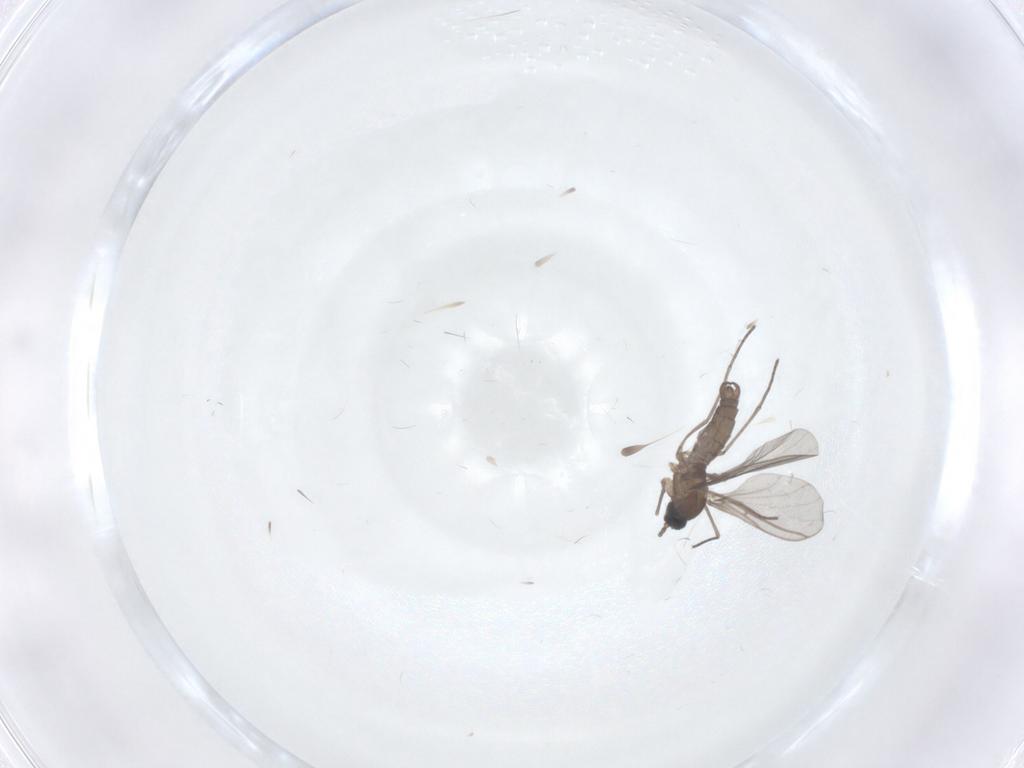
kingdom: Animalia
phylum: Arthropoda
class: Insecta
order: Diptera
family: Sciaridae
